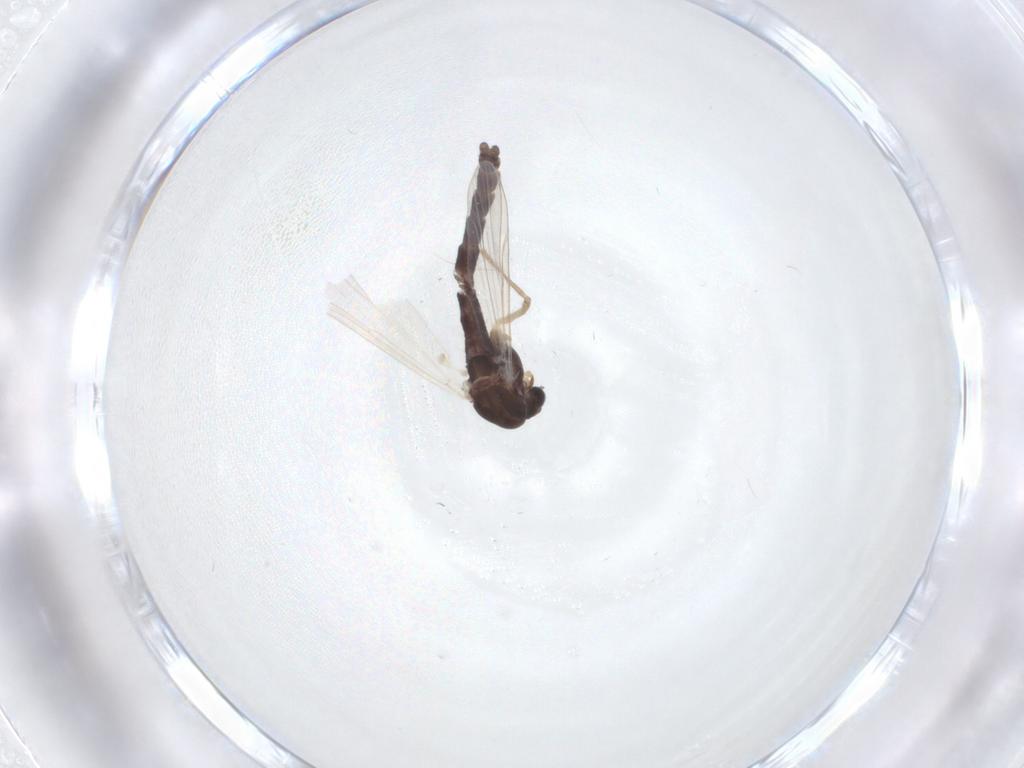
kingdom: Animalia
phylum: Arthropoda
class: Insecta
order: Diptera
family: Chironomidae
